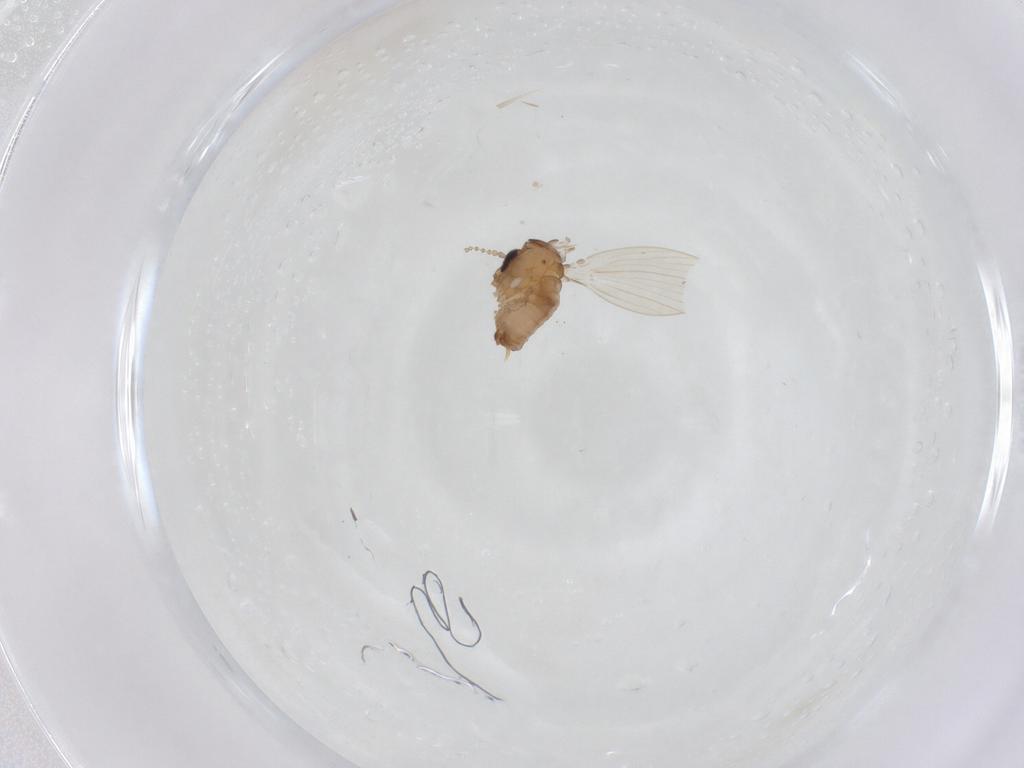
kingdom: Animalia
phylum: Arthropoda
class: Insecta
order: Diptera
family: Psychodidae
